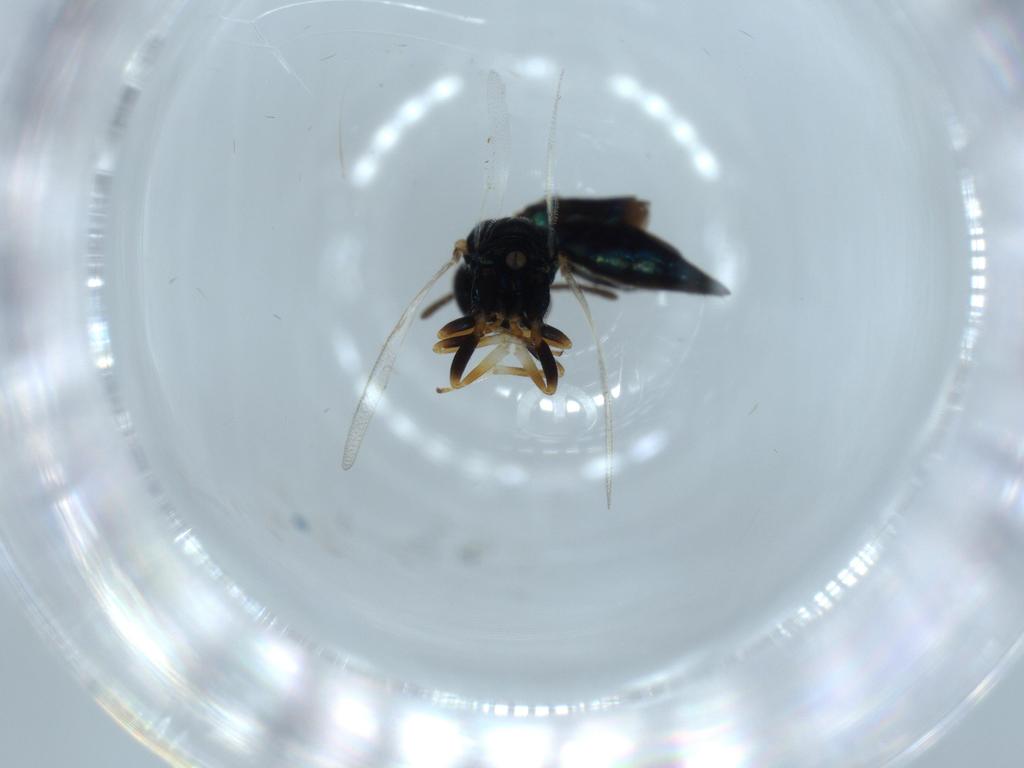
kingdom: Animalia
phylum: Arthropoda
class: Insecta
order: Hymenoptera
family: Pteromalidae
